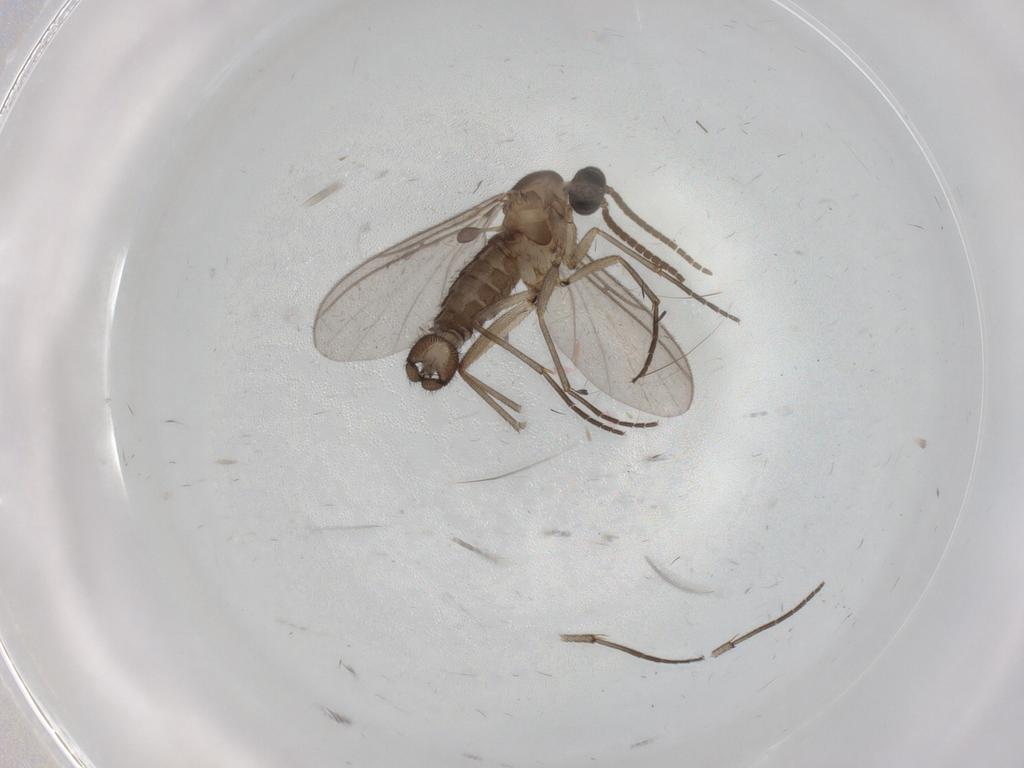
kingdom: Animalia
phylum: Arthropoda
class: Insecta
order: Diptera
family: Sciaridae
